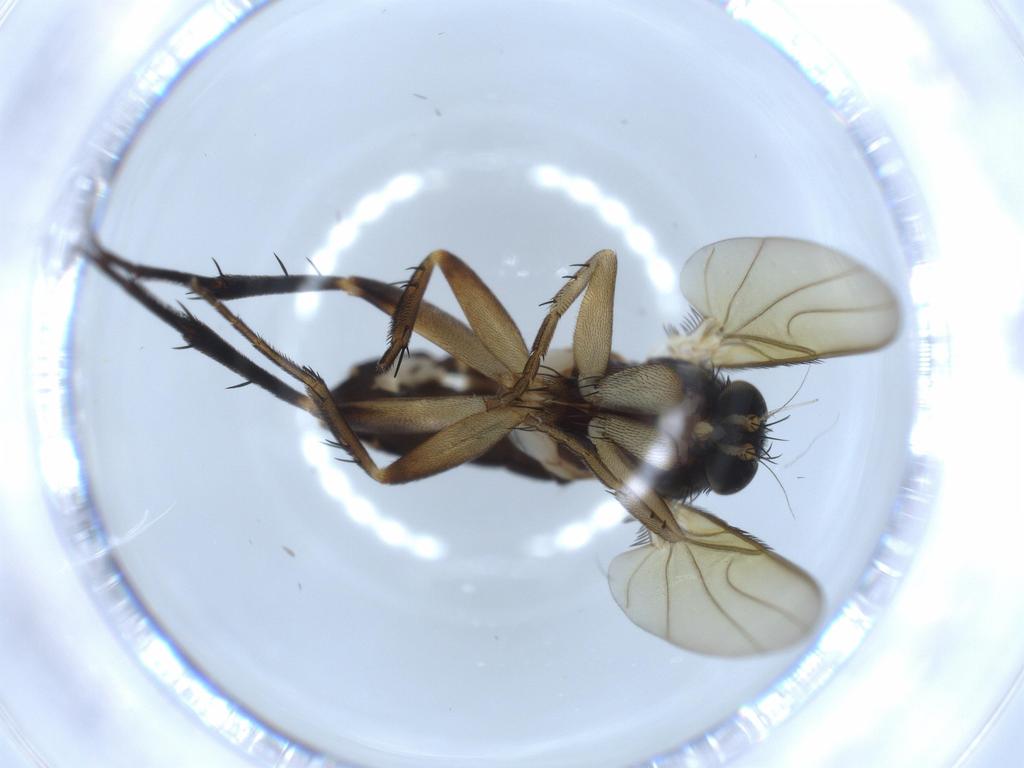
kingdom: Animalia
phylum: Arthropoda
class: Insecta
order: Diptera
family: Phoridae
